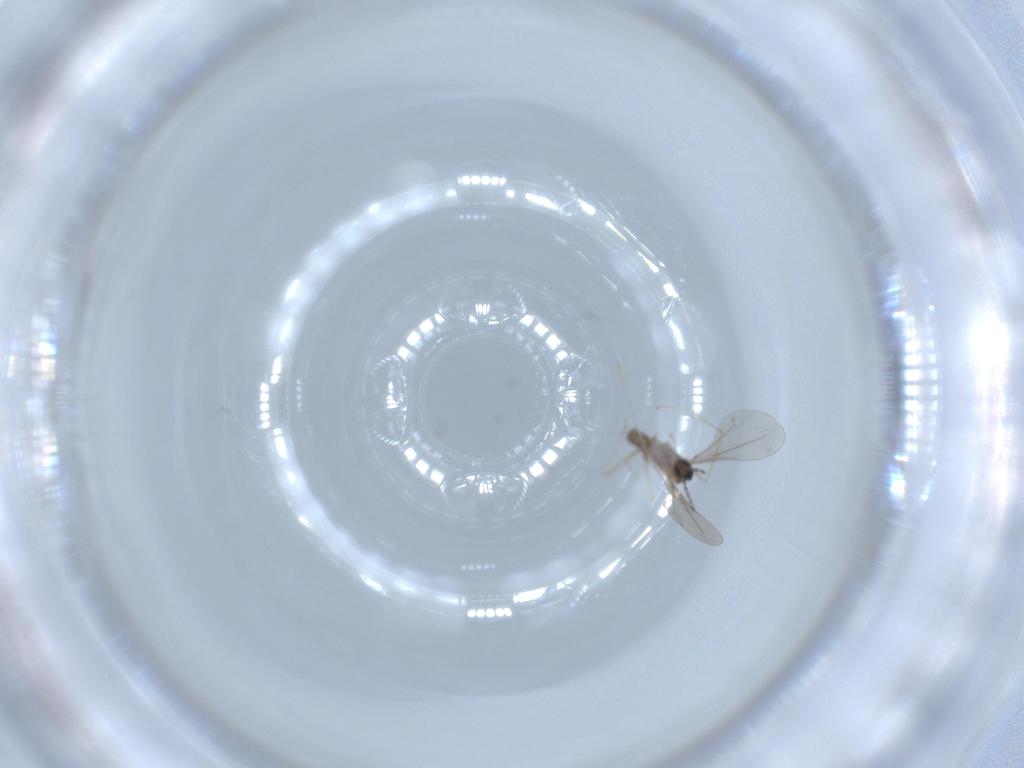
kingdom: Animalia
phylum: Arthropoda
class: Insecta
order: Diptera
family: Cecidomyiidae
